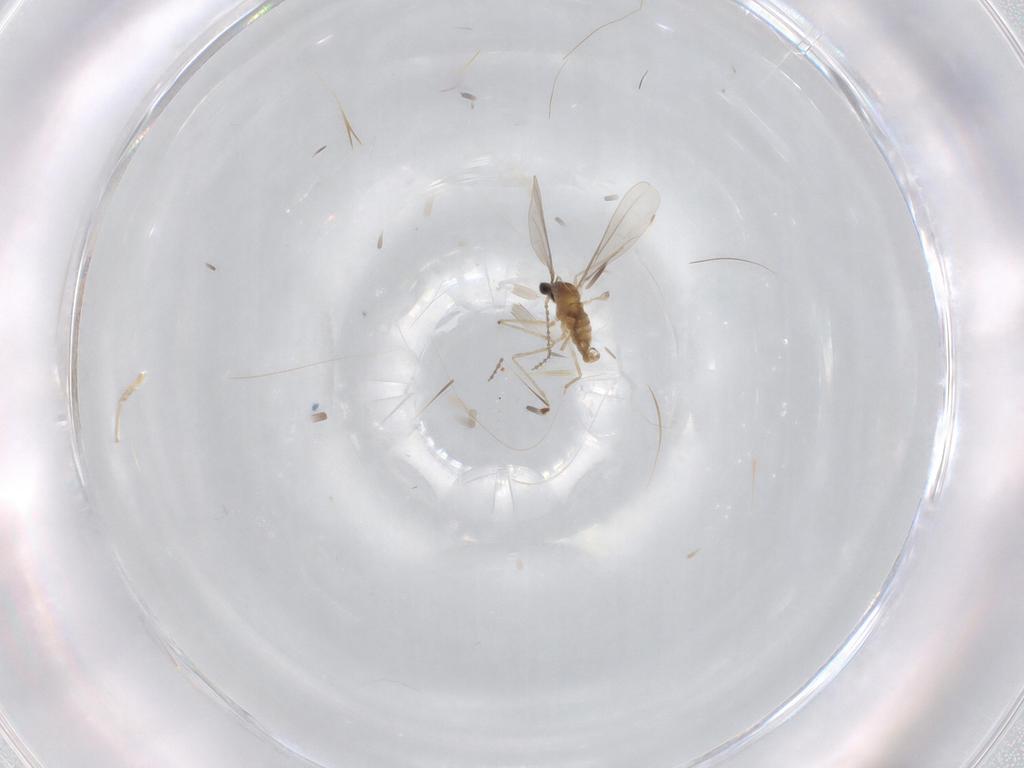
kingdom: Animalia
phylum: Arthropoda
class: Insecta
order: Diptera
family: Cecidomyiidae
